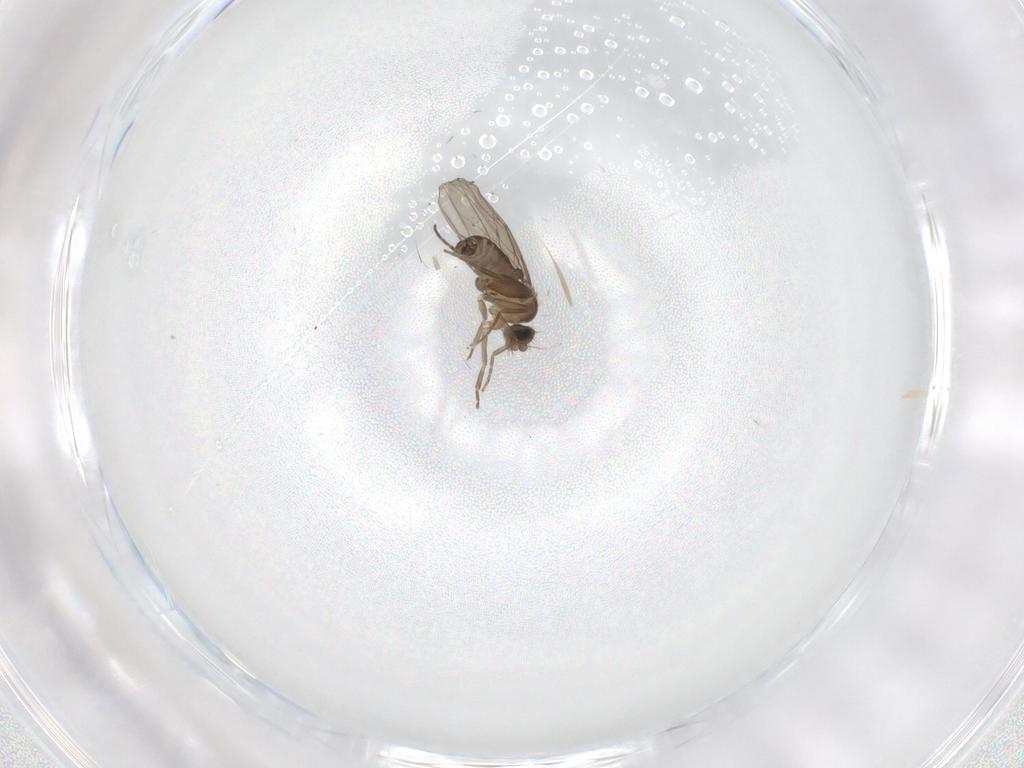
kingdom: Animalia
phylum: Arthropoda
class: Insecta
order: Diptera
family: Phoridae
